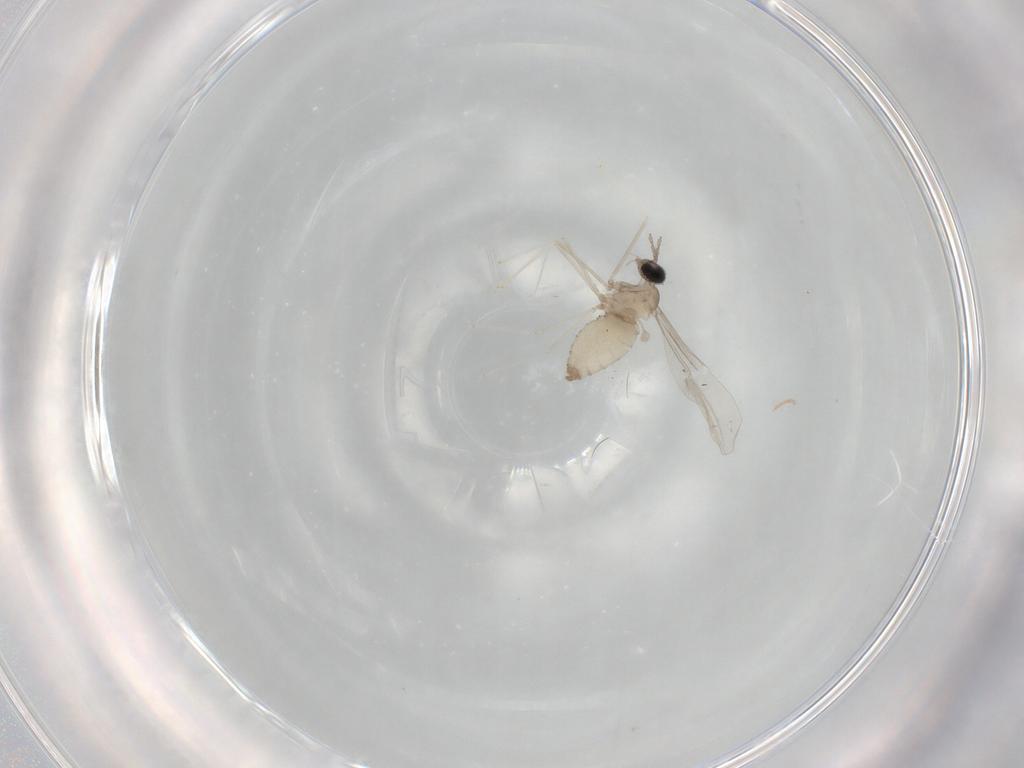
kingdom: Animalia
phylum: Arthropoda
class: Insecta
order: Diptera
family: Cecidomyiidae
